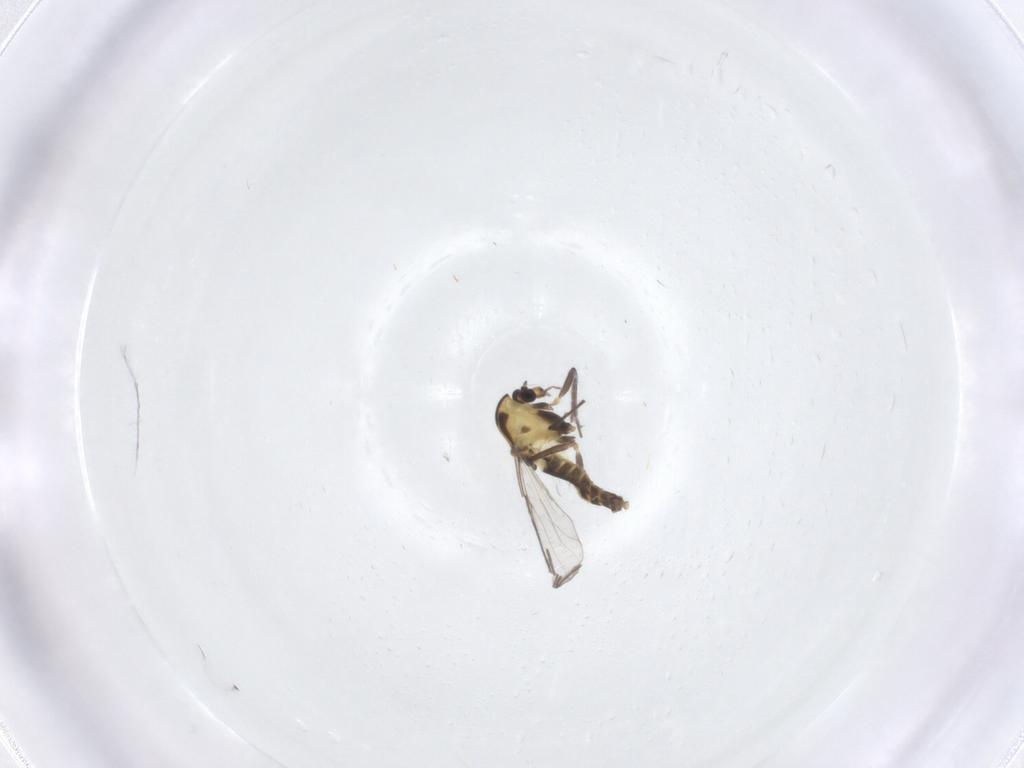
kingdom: Animalia
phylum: Arthropoda
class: Insecta
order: Diptera
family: Chironomidae
